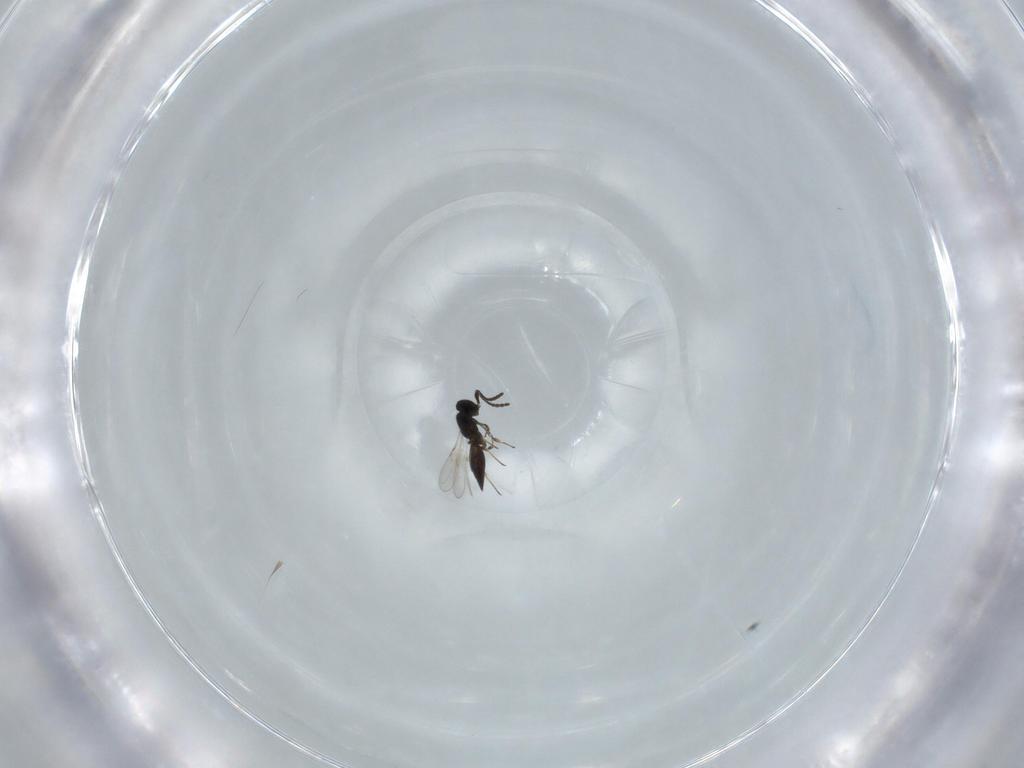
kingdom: Animalia
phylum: Arthropoda
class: Insecta
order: Hymenoptera
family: Scelionidae
